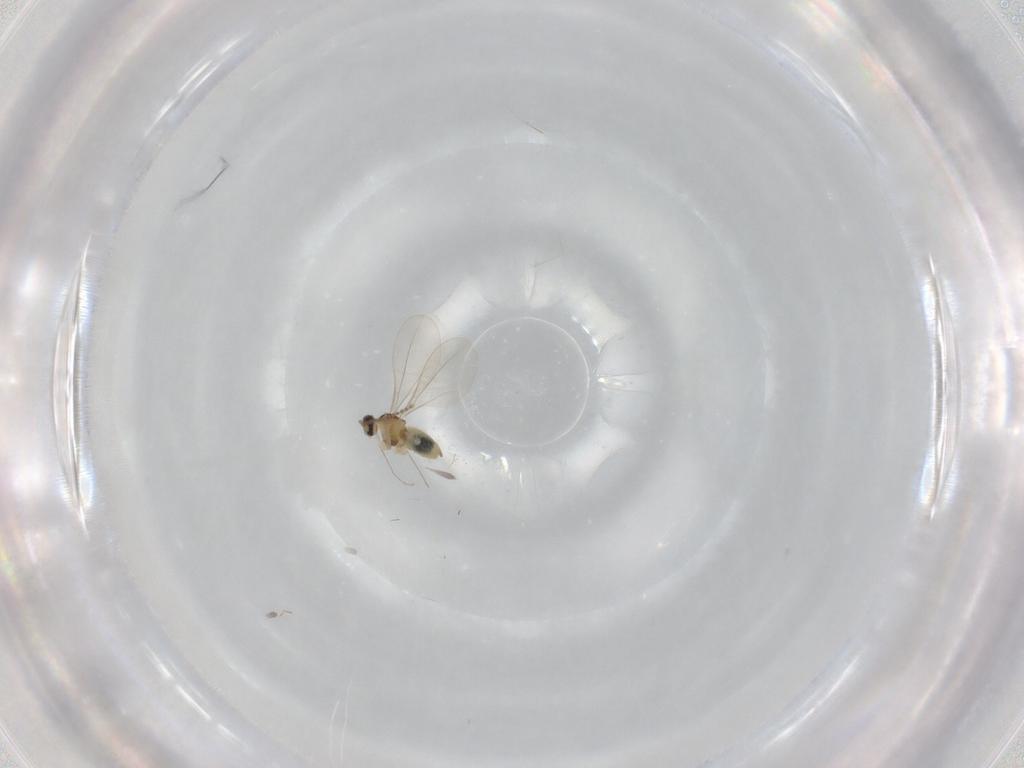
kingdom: Animalia
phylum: Arthropoda
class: Insecta
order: Diptera
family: Cecidomyiidae
